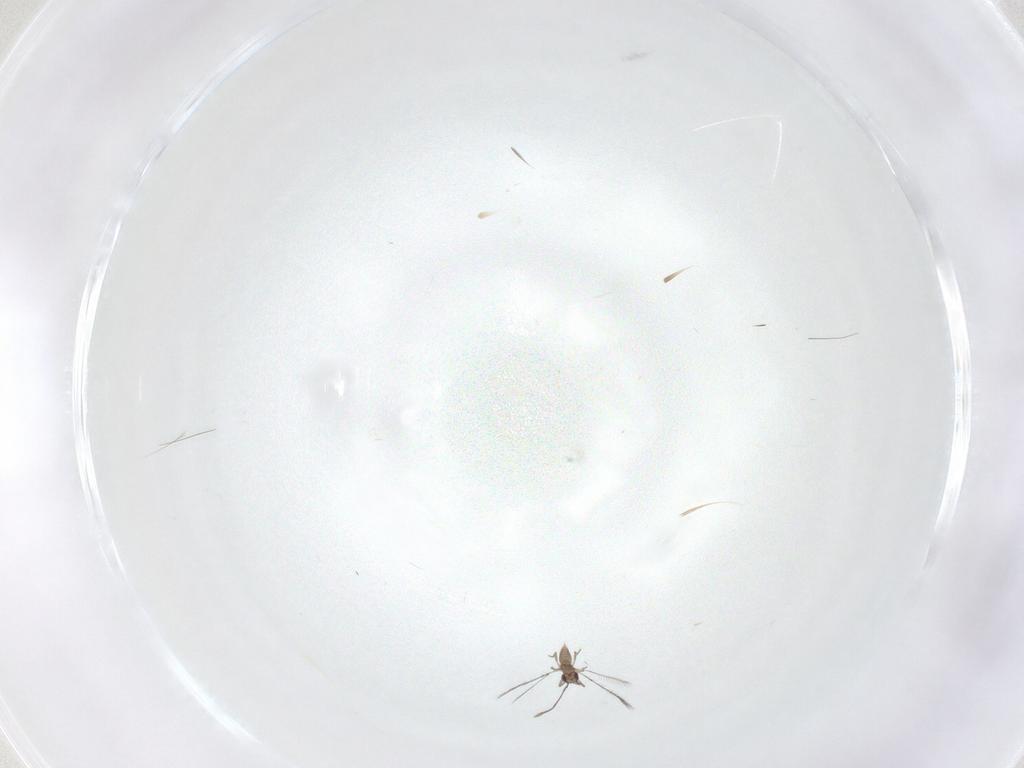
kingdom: Animalia
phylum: Arthropoda
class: Insecta
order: Hymenoptera
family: Mymaridae
